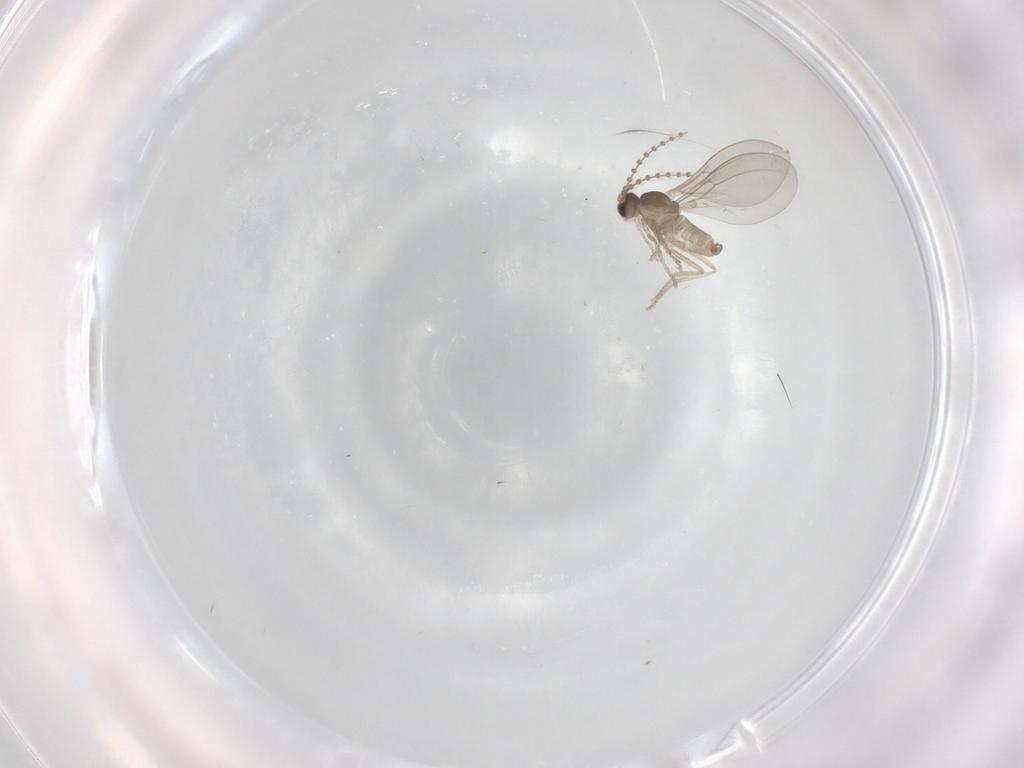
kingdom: Animalia
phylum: Arthropoda
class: Insecta
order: Diptera
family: Cecidomyiidae
